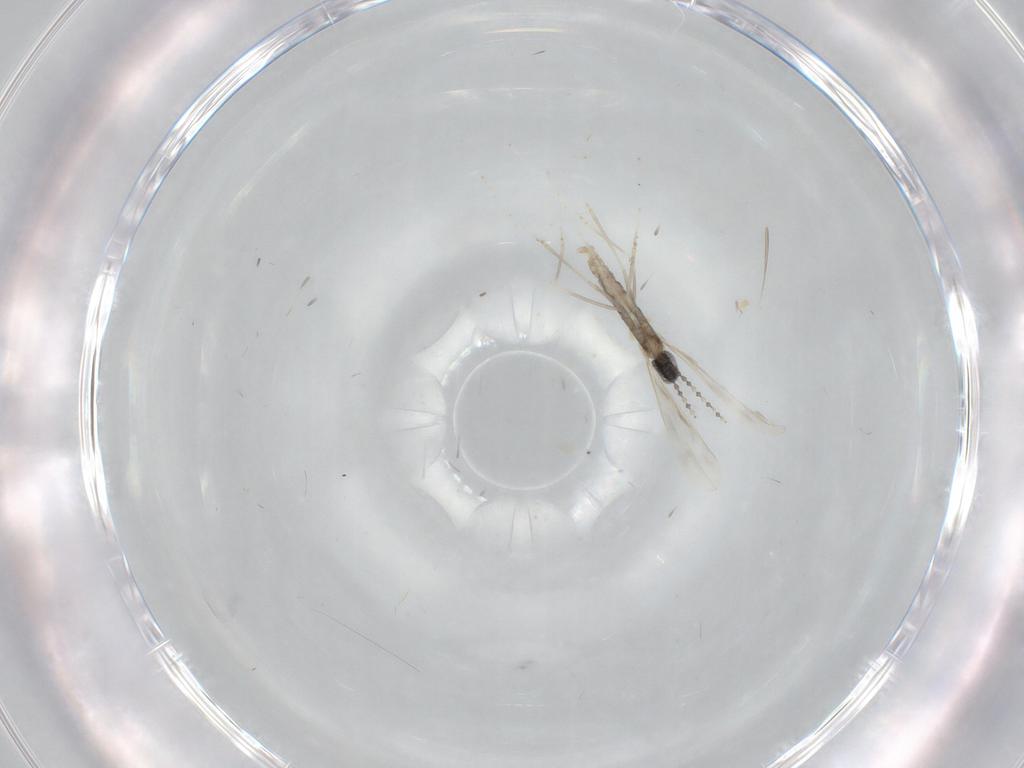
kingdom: Animalia
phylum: Arthropoda
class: Insecta
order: Diptera
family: Cecidomyiidae
